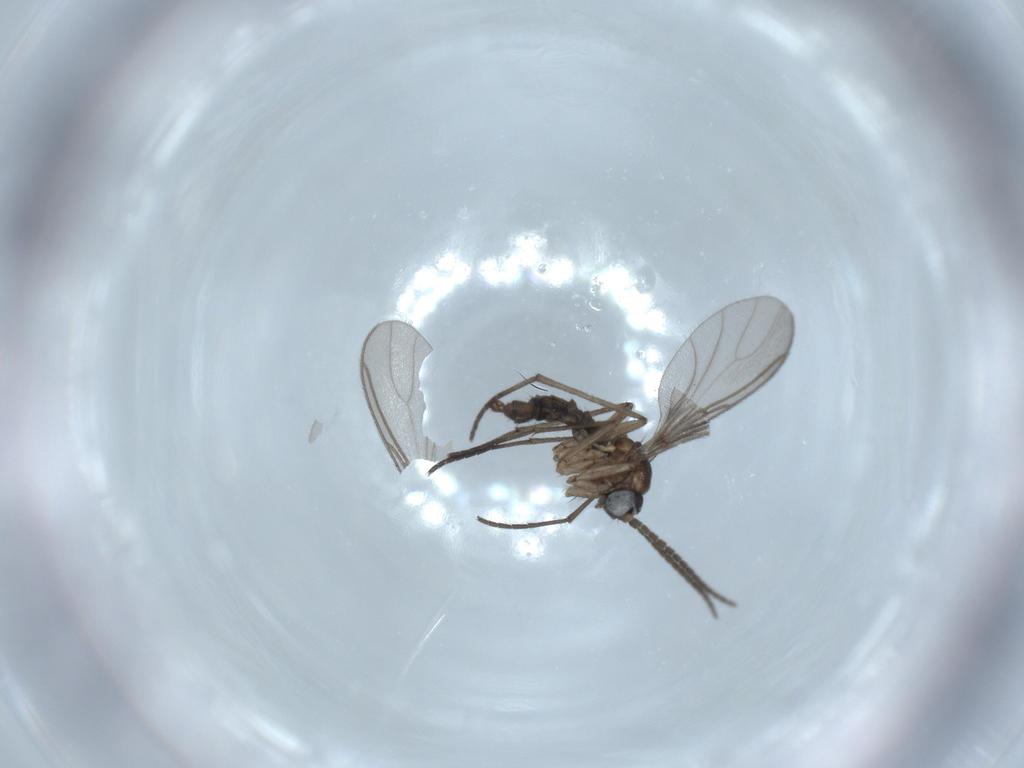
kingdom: Animalia
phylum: Arthropoda
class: Insecta
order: Diptera
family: Sciaridae
